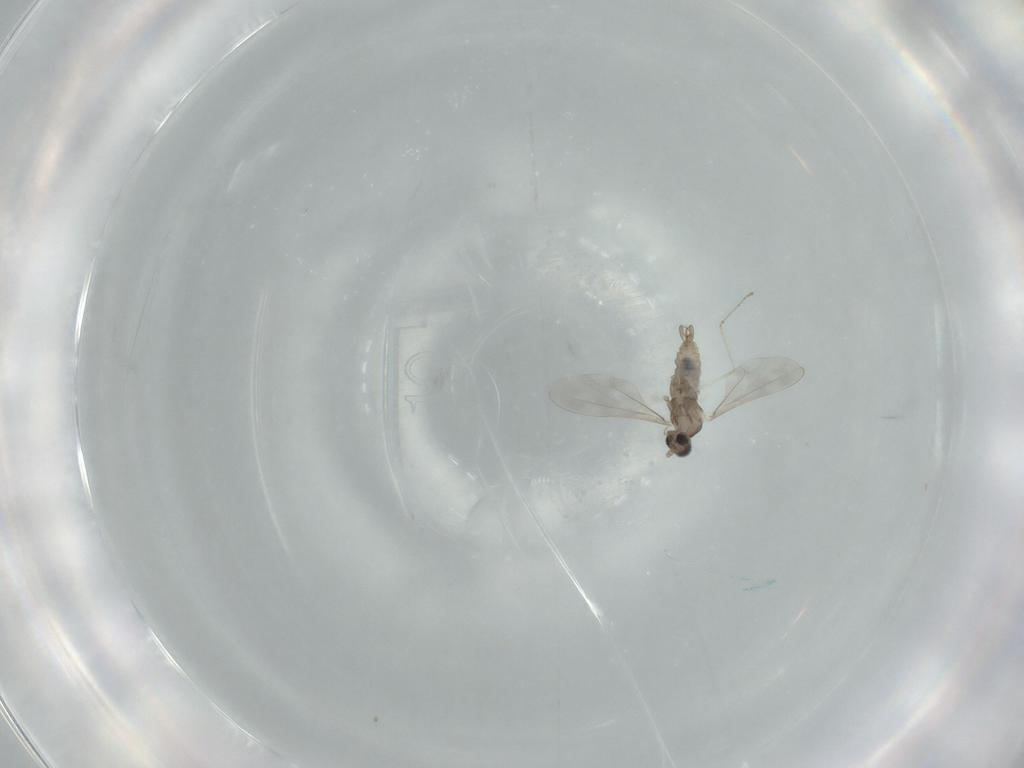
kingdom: Animalia
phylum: Arthropoda
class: Insecta
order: Diptera
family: Cecidomyiidae
